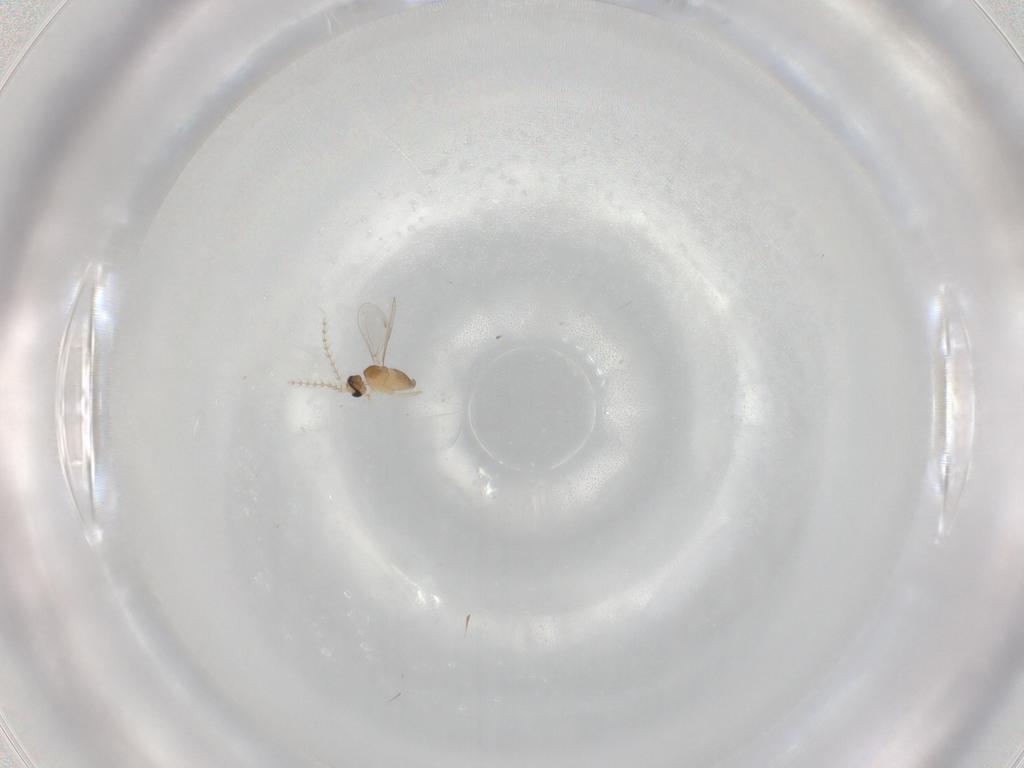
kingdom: Animalia
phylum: Arthropoda
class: Insecta
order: Diptera
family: Cecidomyiidae
